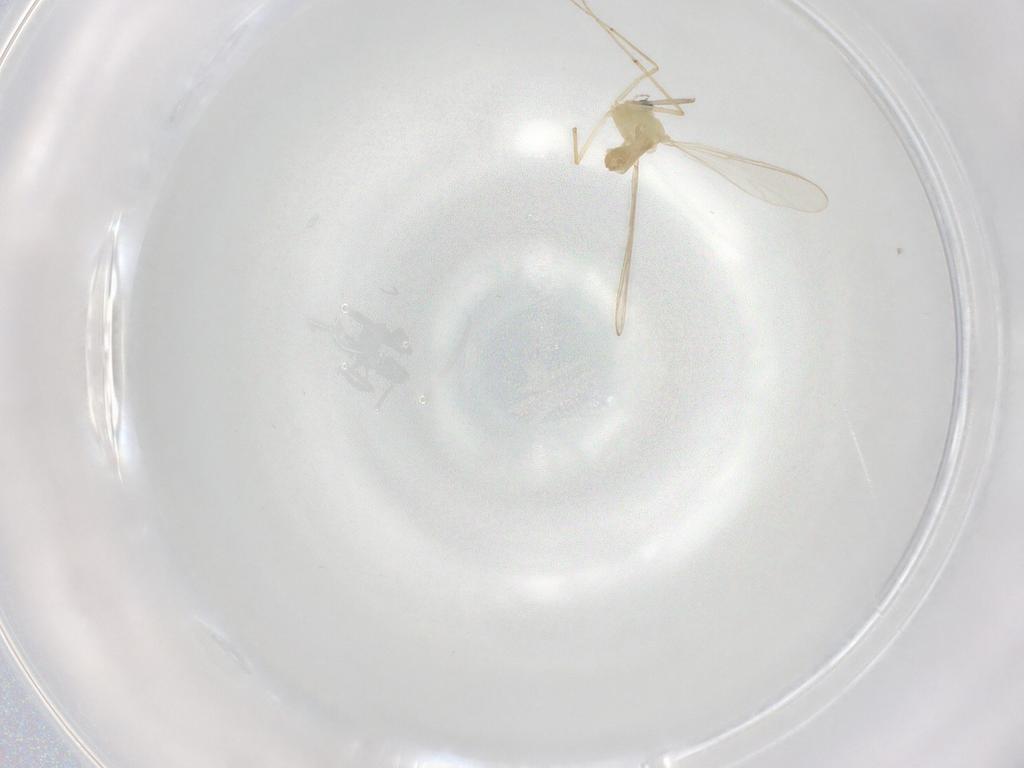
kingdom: Animalia
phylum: Arthropoda
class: Insecta
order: Diptera
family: Chironomidae
